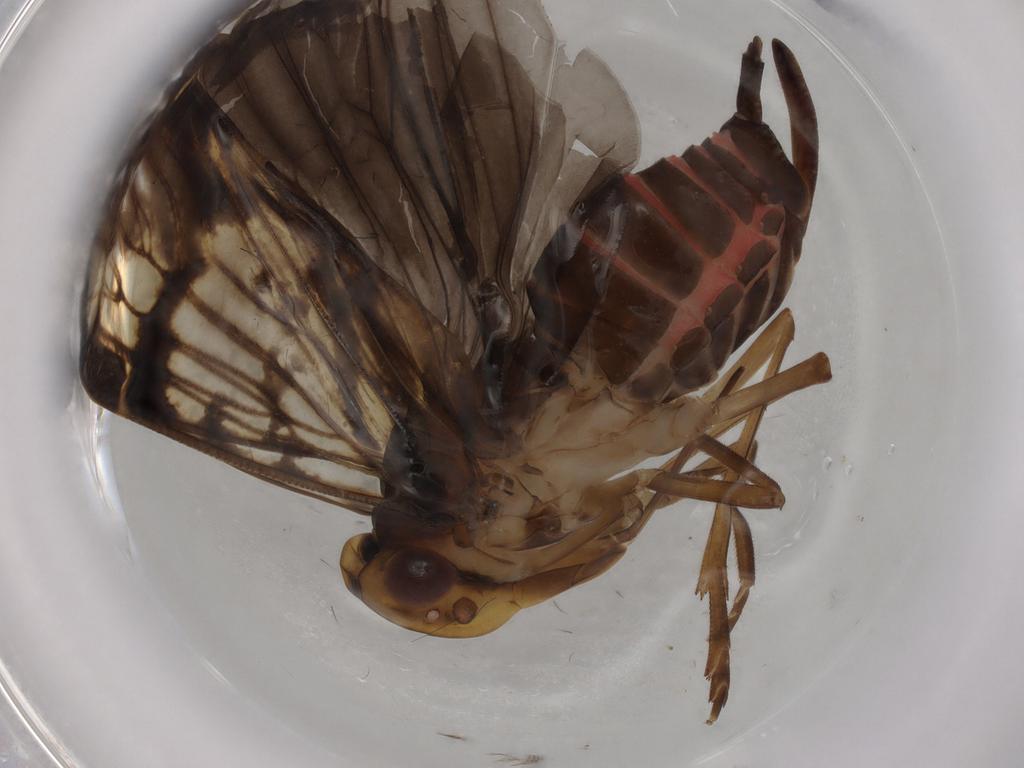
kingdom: Animalia
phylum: Arthropoda
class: Insecta
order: Hemiptera
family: Cixiidae
